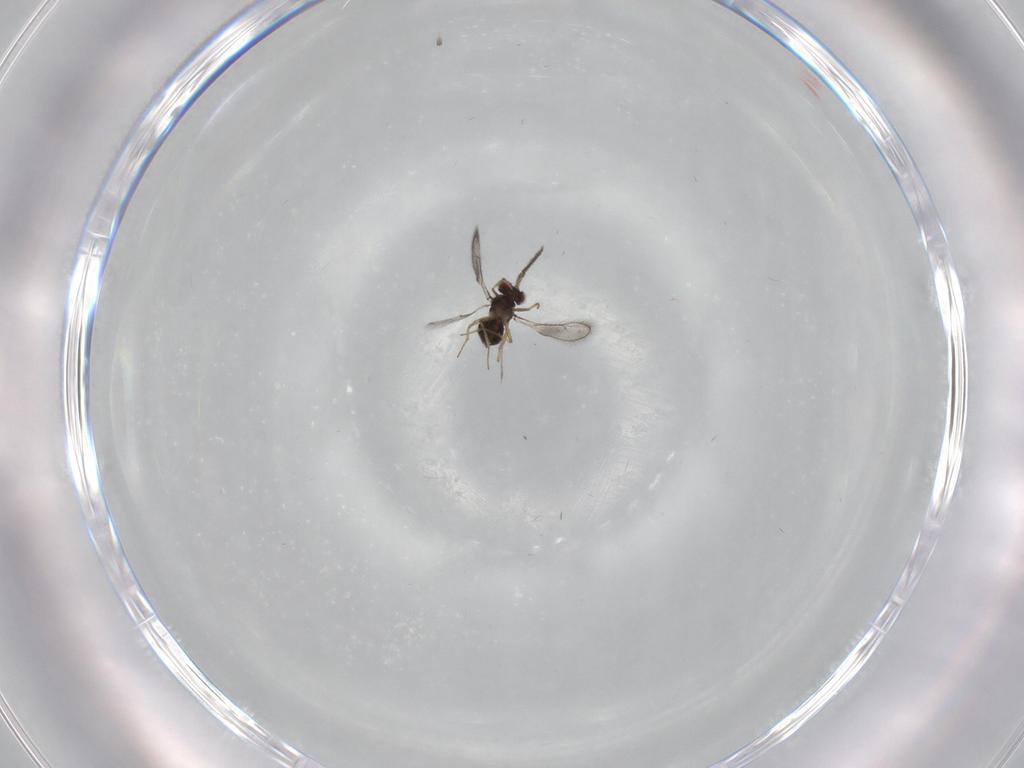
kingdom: Animalia
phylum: Arthropoda
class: Insecta
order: Hymenoptera
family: Eulophidae
